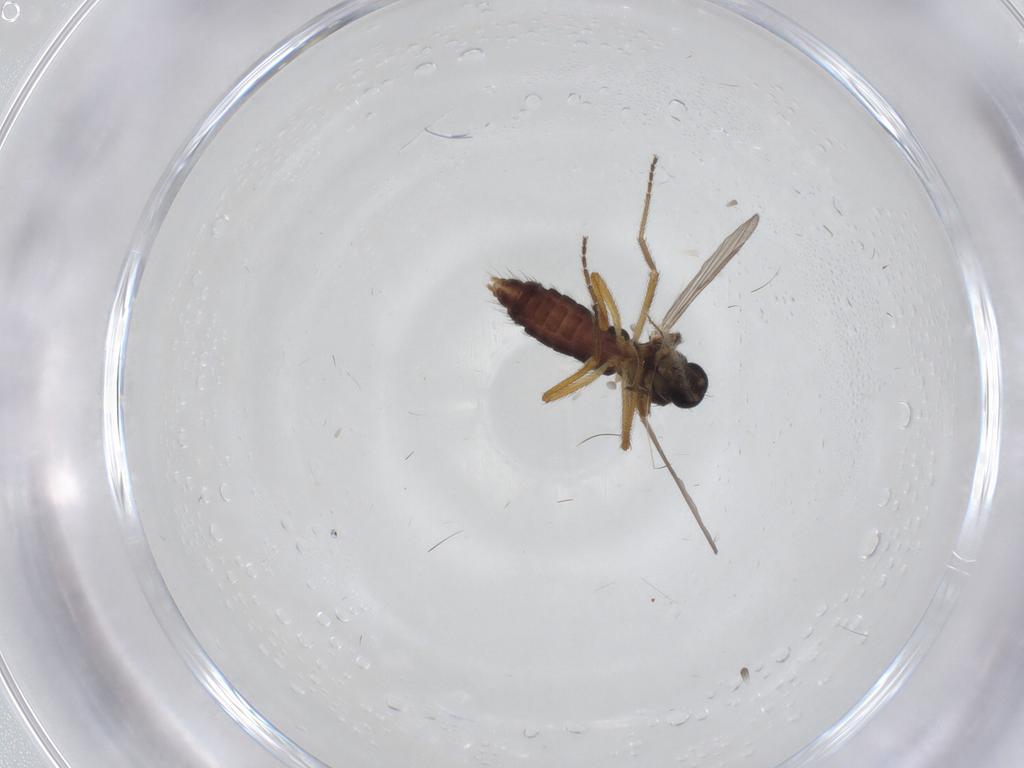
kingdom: Animalia
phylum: Arthropoda
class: Insecta
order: Diptera
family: Ceratopogonidae
